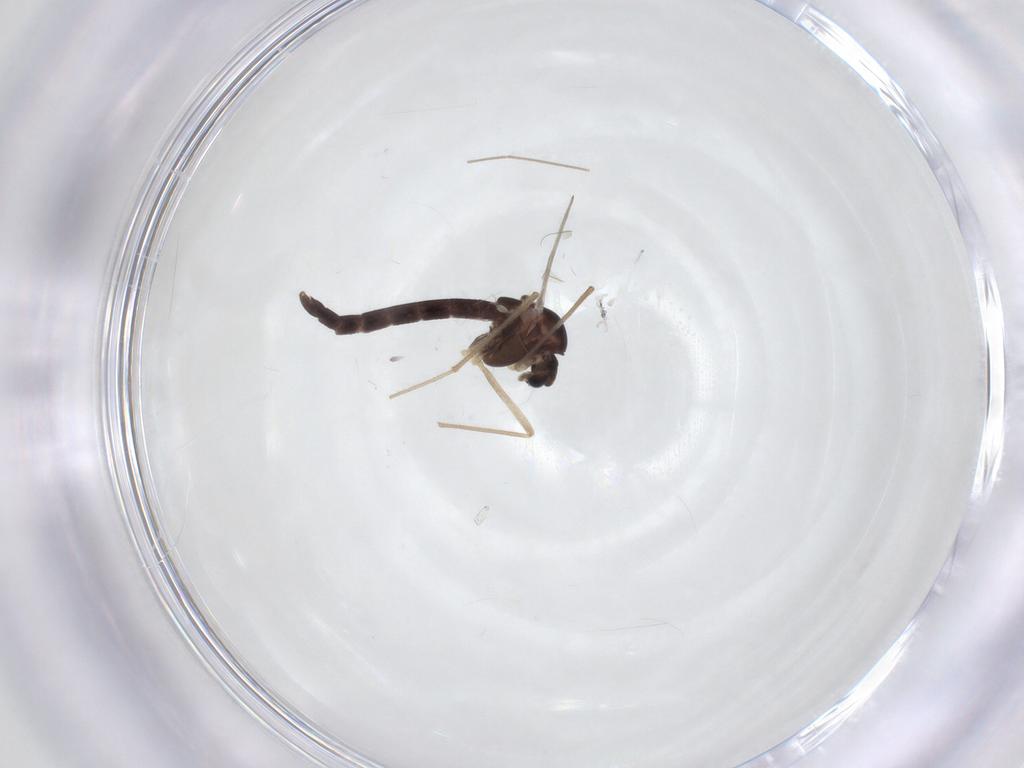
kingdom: Animalia
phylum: Arthropoda
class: Insecta
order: Diptera
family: Chironomidae
